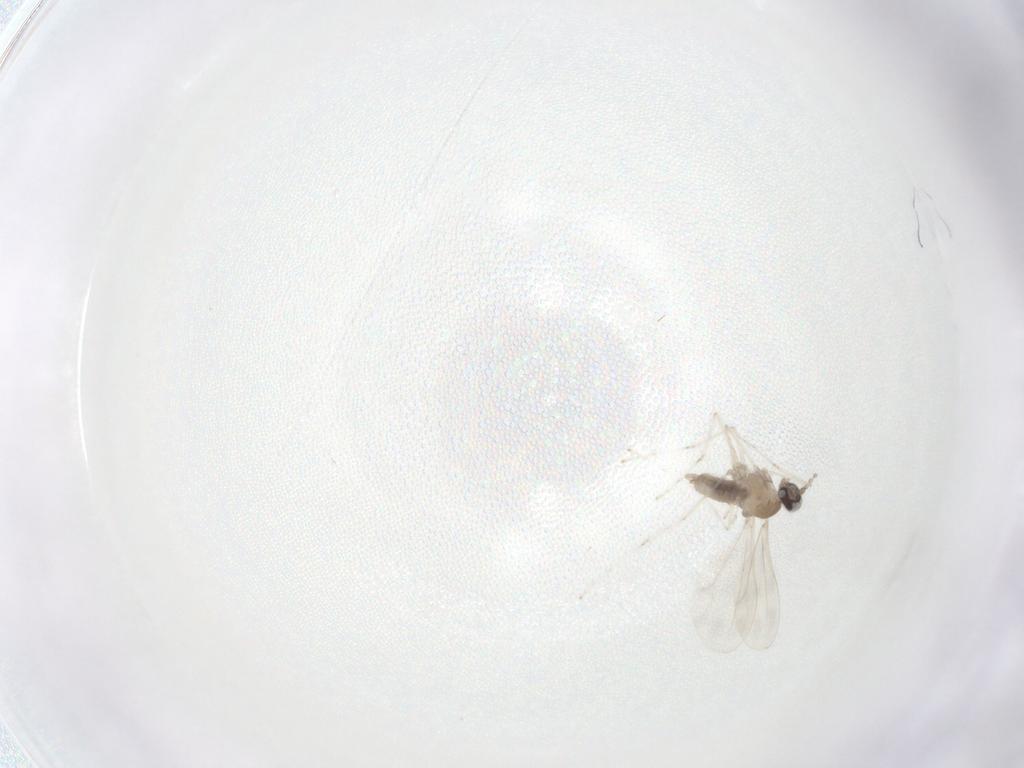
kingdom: Animalia
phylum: Arthropoda
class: Insecta
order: Diptera
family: Cecidomyiidae
